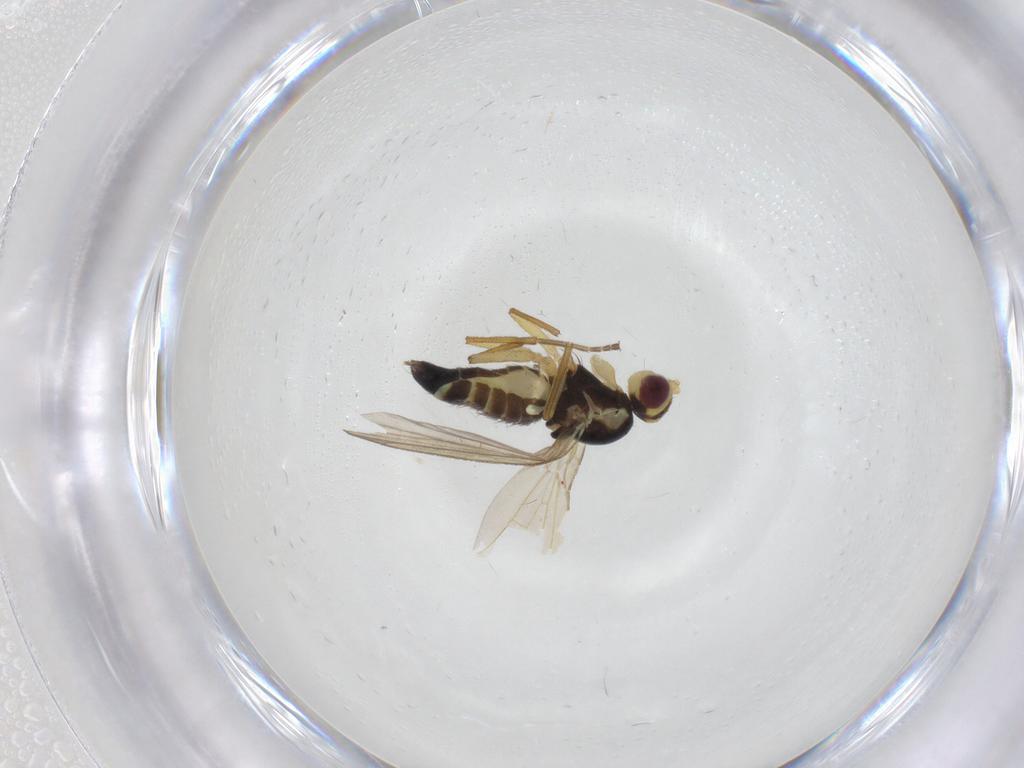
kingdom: Animalia
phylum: Arthropoda
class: Insecta
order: Diptera
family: Agromyzidae
